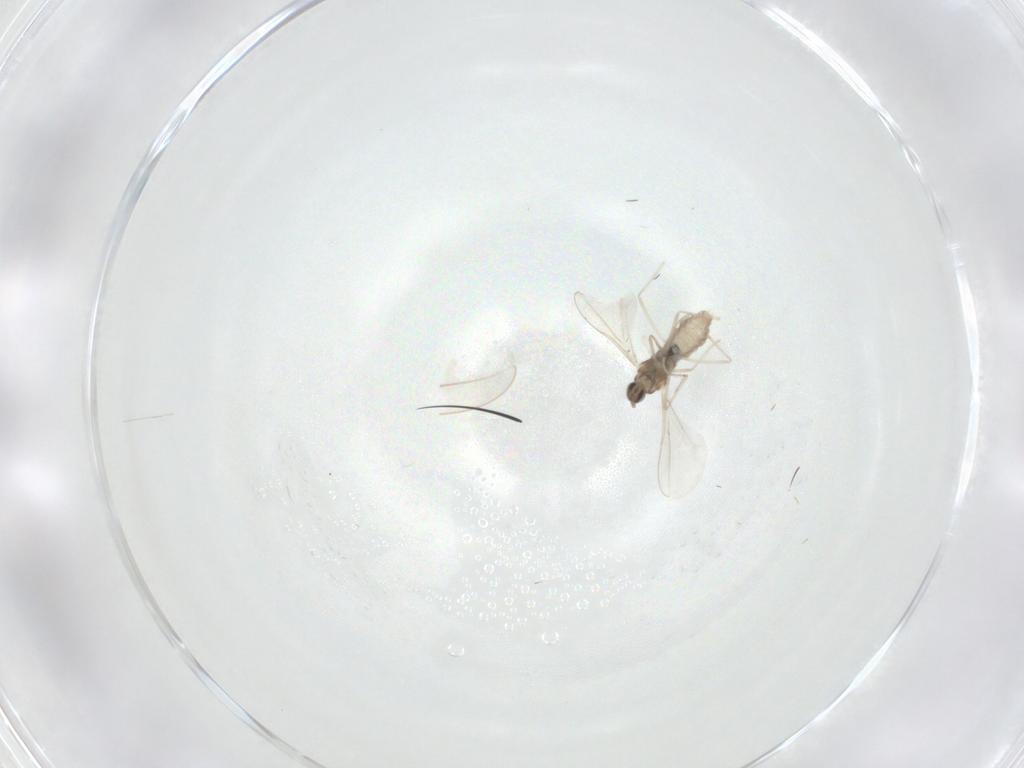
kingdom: Animalia
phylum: Arthropoda
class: Insecta
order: Diptera
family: Cecidomyiidae
